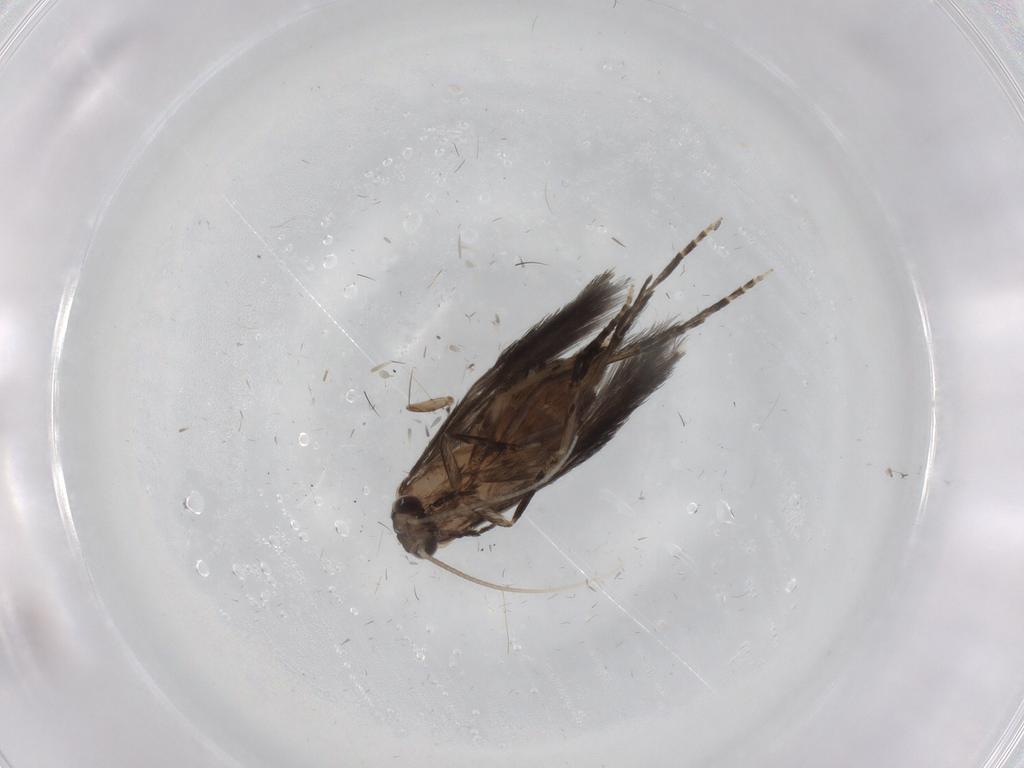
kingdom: Animalia
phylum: Arthropoda
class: Insecta
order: Trichoptera
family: Hydroptilidae
